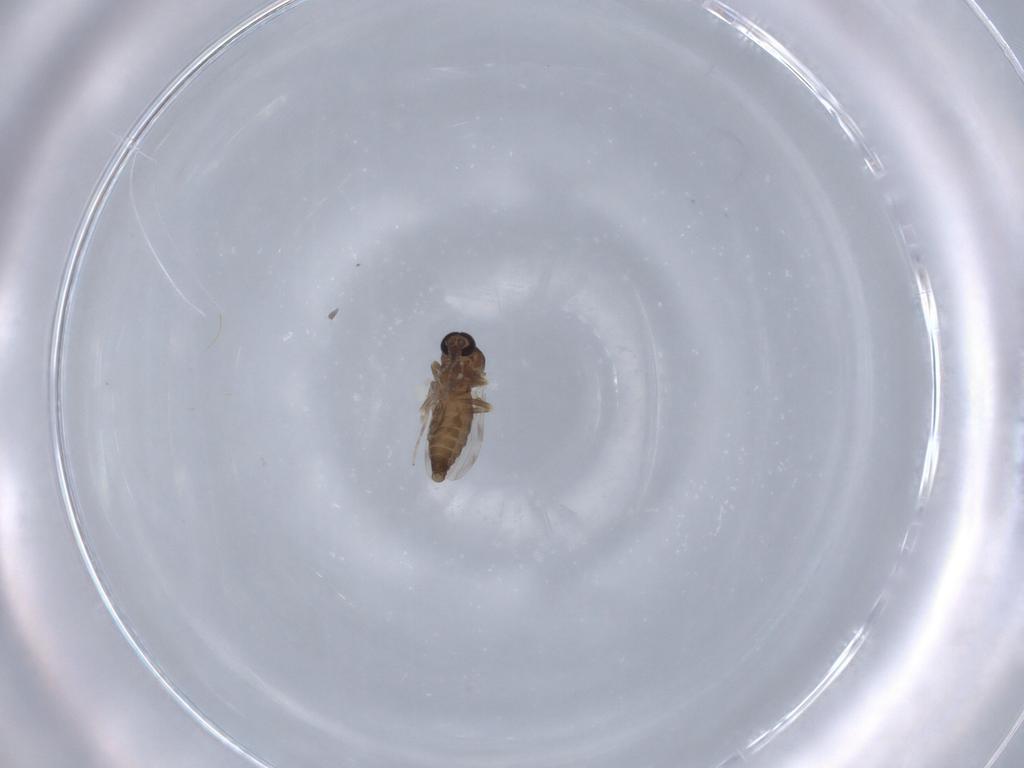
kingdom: Animalia
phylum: Arthropoda
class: Insecta
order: Diptera
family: Ceratopogonidae
